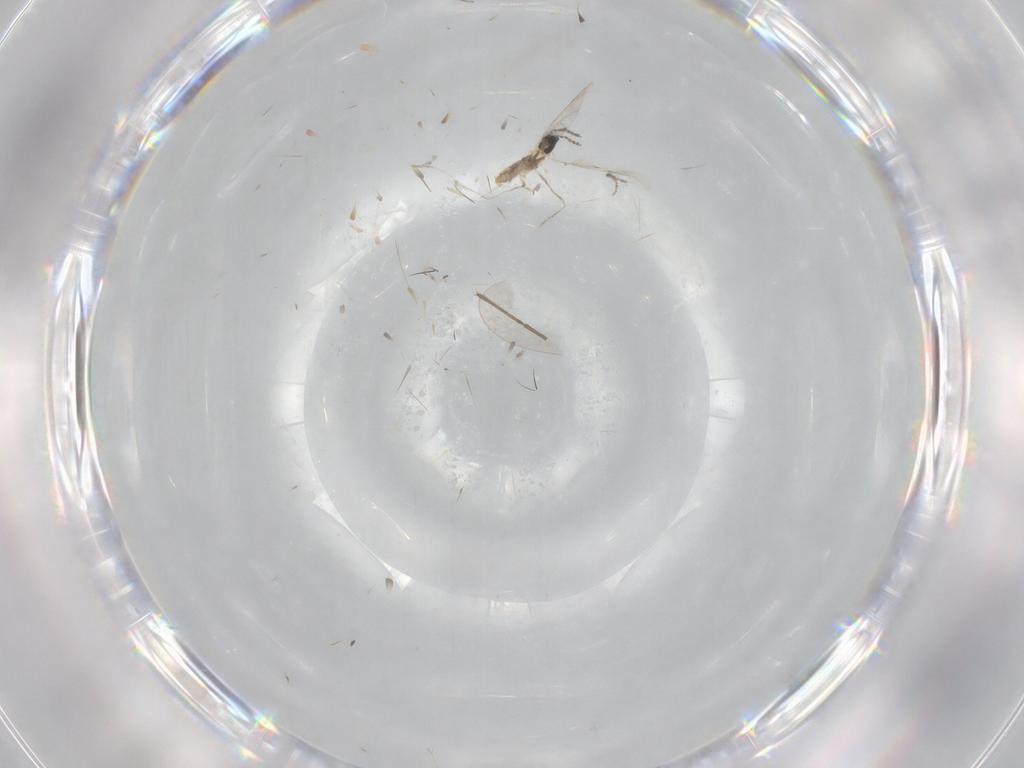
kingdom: Animalia
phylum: Arthropoda
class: Insecta
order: Diptera
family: Cecidomyiidae
